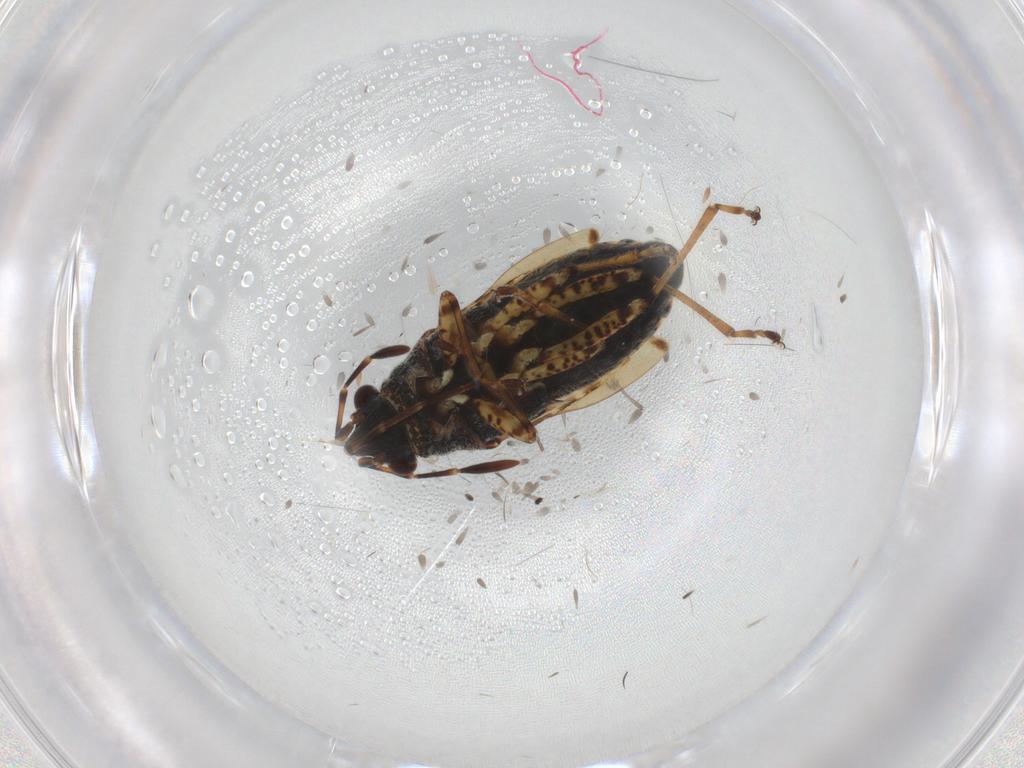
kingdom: Animalia
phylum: Arthropoda
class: Insecta
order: Hemiptera
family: Lygaeidae
